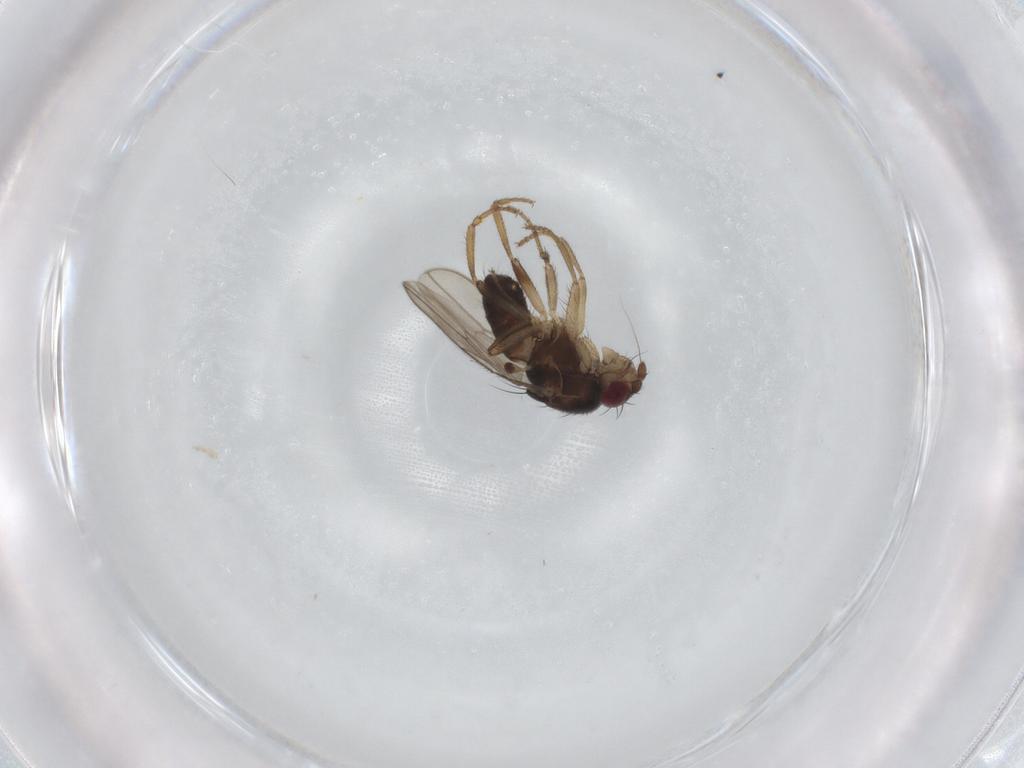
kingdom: Animalia
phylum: Arthropoda
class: Insecta
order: Diptera
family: Sphaeroceridae
